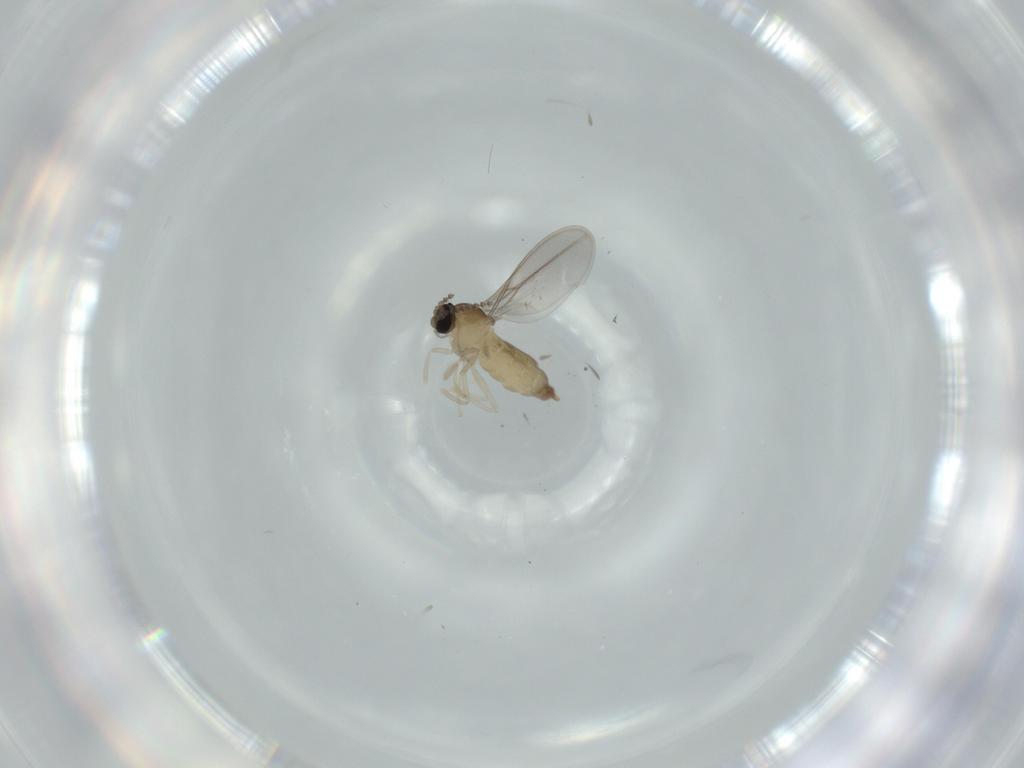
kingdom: Animalia
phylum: Arthropoda
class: Insecta
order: Diptera
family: Cecidomyiidae
